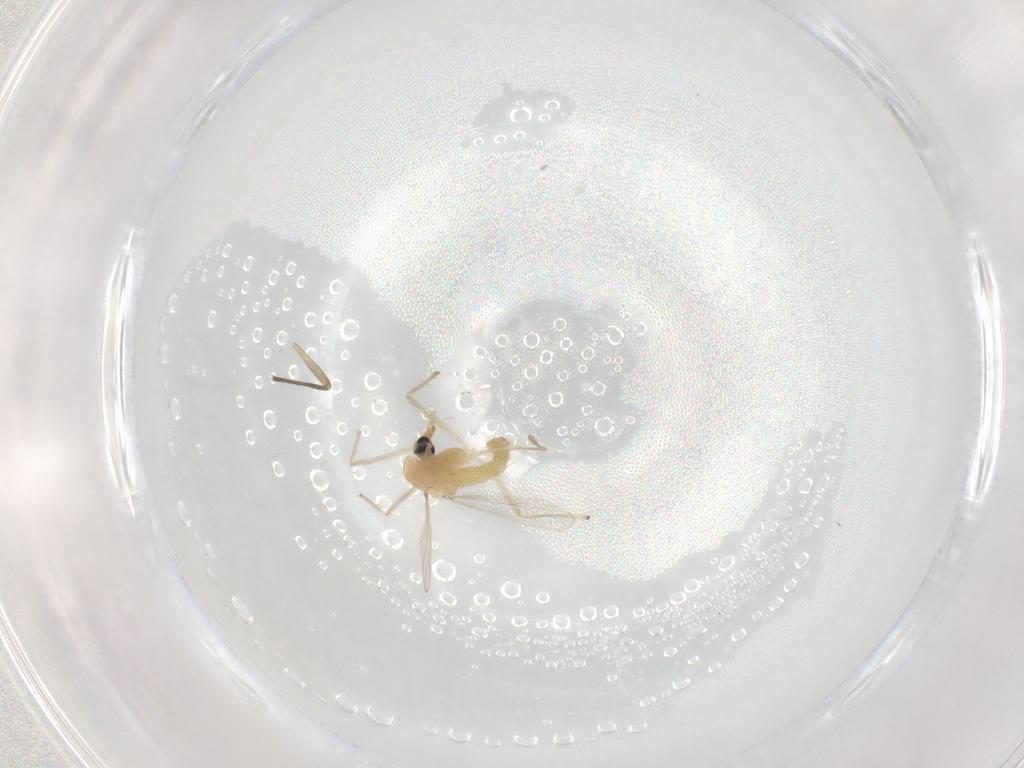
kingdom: Animalia
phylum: Arthropoda
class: Insecta
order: Diptera
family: Chironomidae
